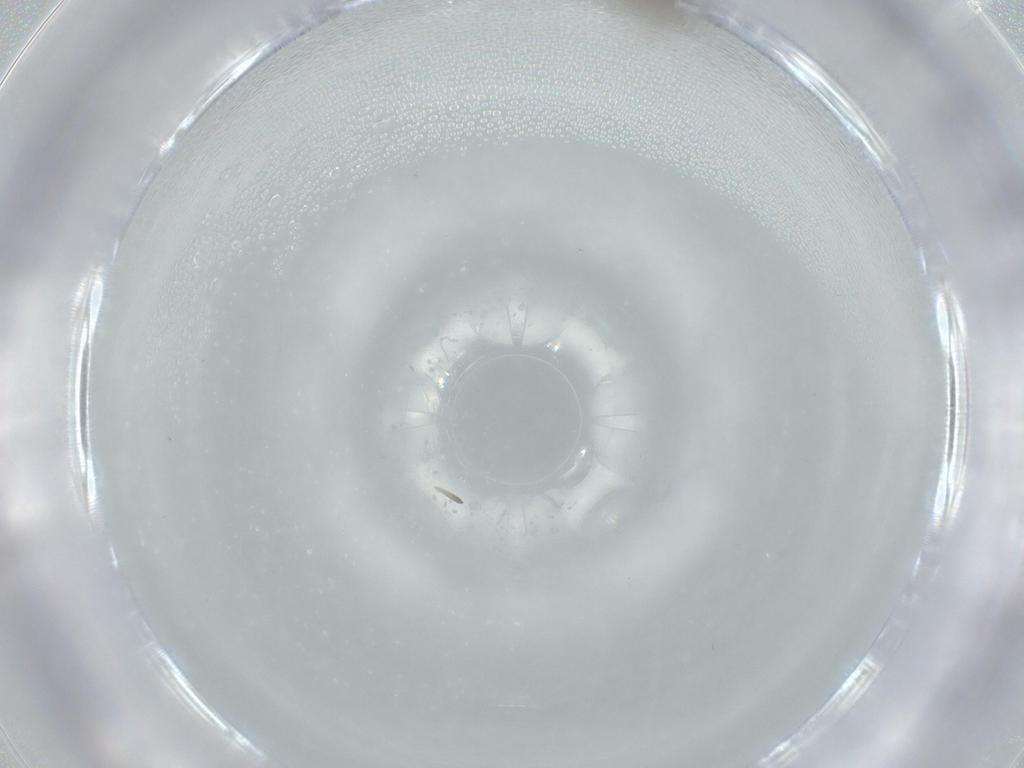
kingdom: Animalia
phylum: Arthropoda
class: Insecta
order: Diptera
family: Sciaridae
